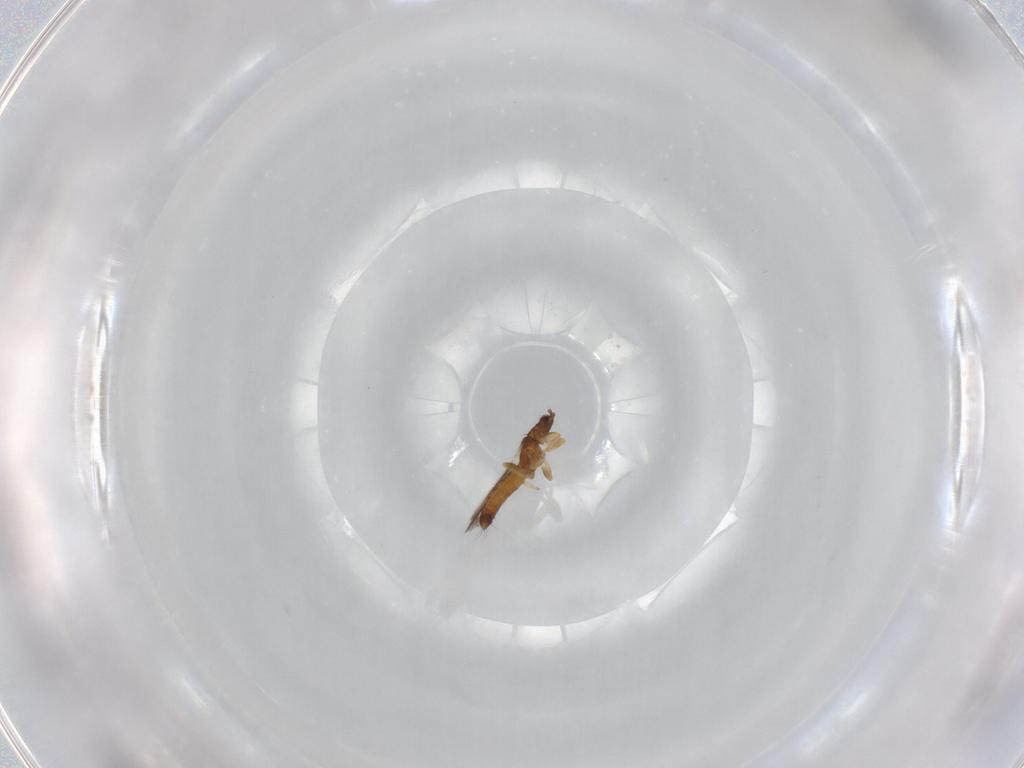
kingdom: Animalia
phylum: Arthropoda
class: Insecta
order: Thysanoptera
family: Thripidae
